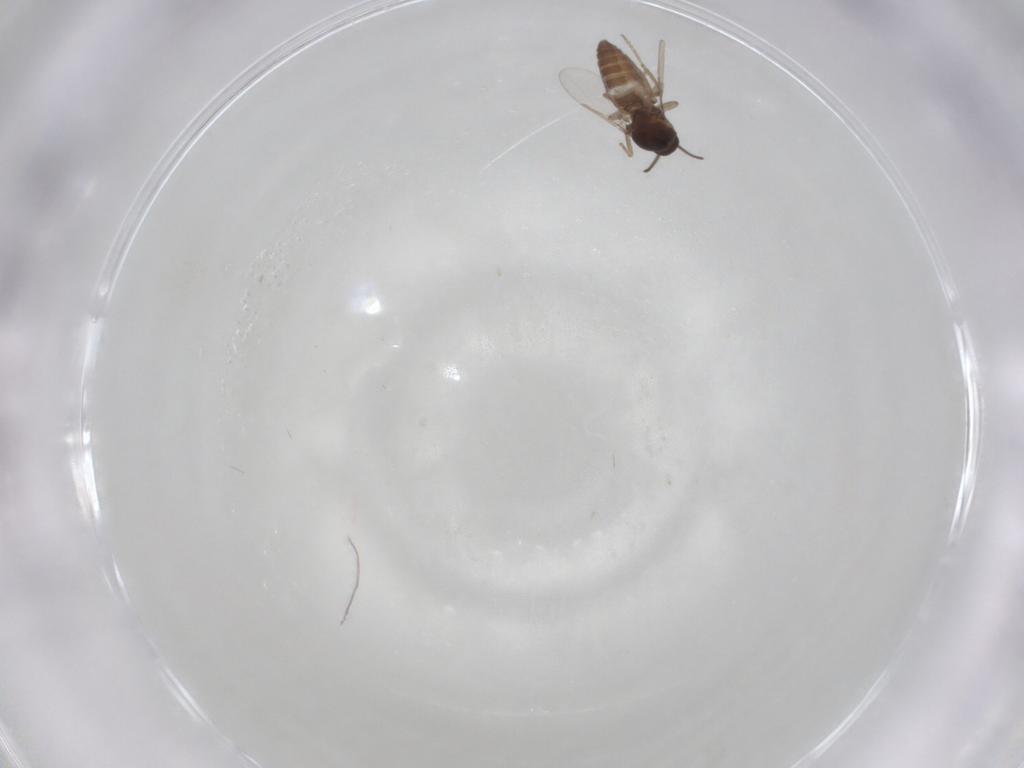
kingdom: Animalia
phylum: Arthropoda
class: Insecta
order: Diptera
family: Ceratopogonidae
